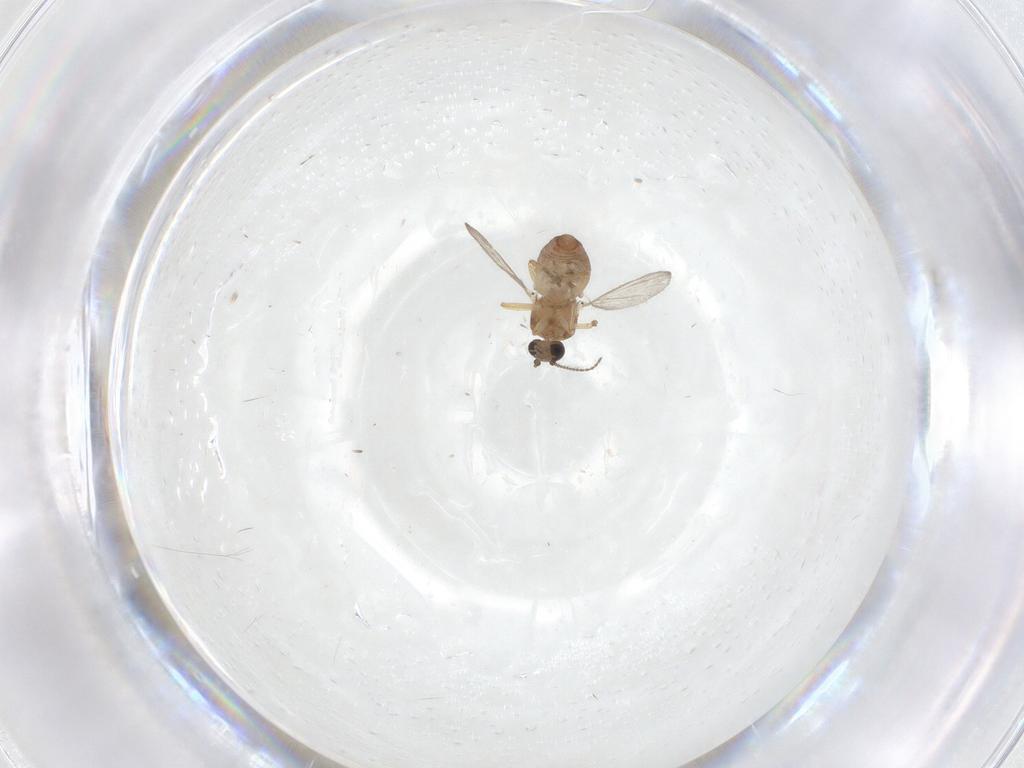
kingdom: Animalia
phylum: Arthropoda
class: Insecta
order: Diptera
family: Ceratopogonidae
